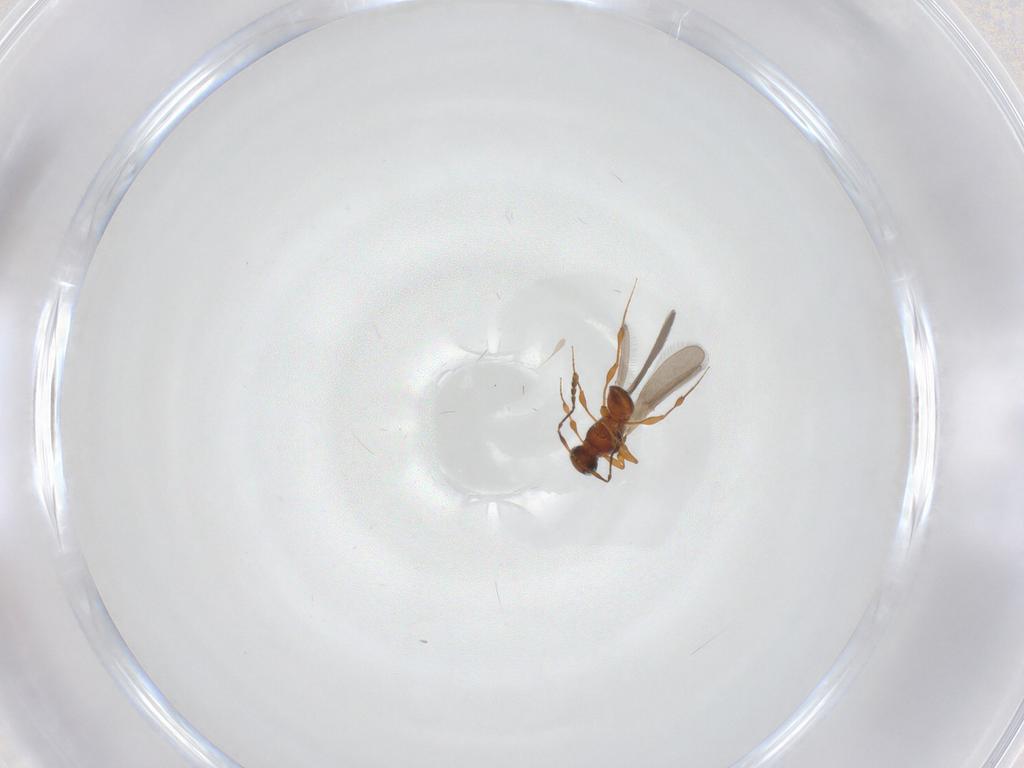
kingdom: Animalia
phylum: Arthropoda
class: Insecta
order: Hymenoptera
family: Platygastridae
